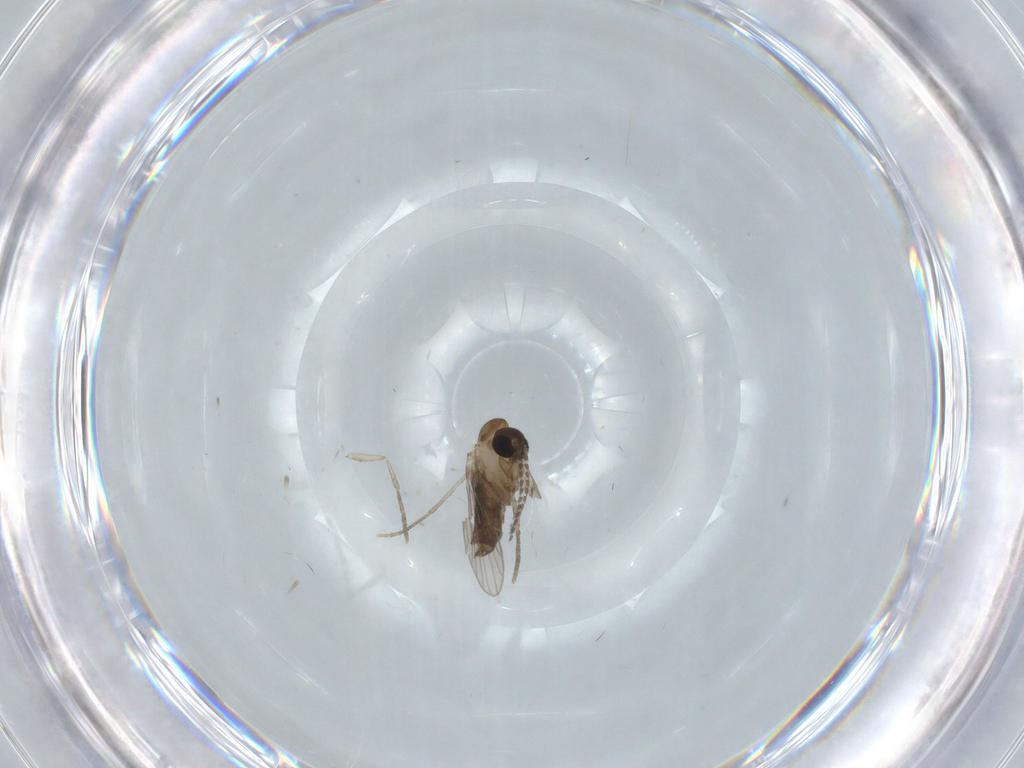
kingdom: Animalia
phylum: Arthropoda
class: Insecta
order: Diptera
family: Psychodidae
